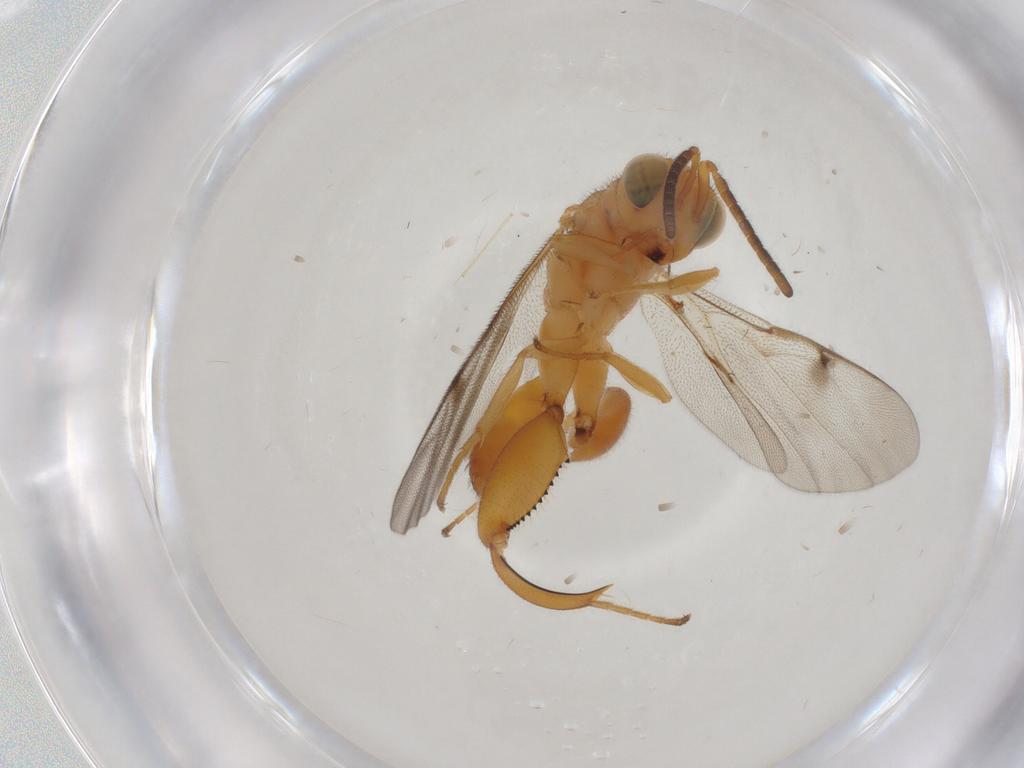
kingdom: Animalia
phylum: Arthropoda
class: Insecta
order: Hymenoptera
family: Chalcididae
